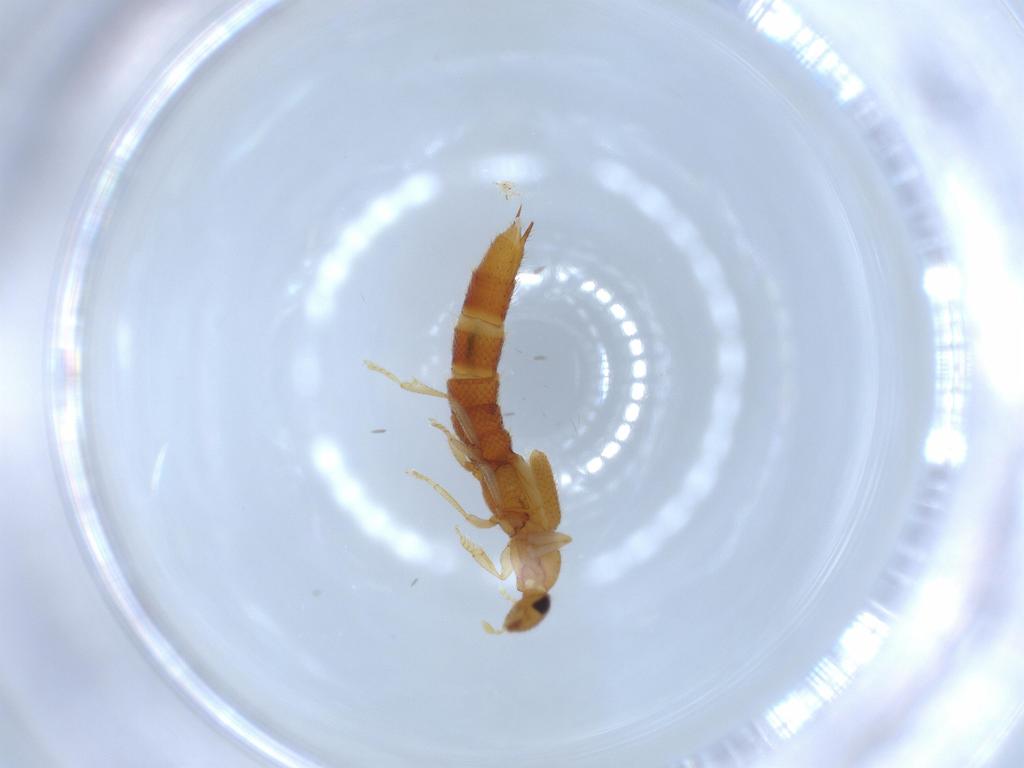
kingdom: Animalia
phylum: Arthropoda
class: Insecta
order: Coleoptera
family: Staphylinidae
